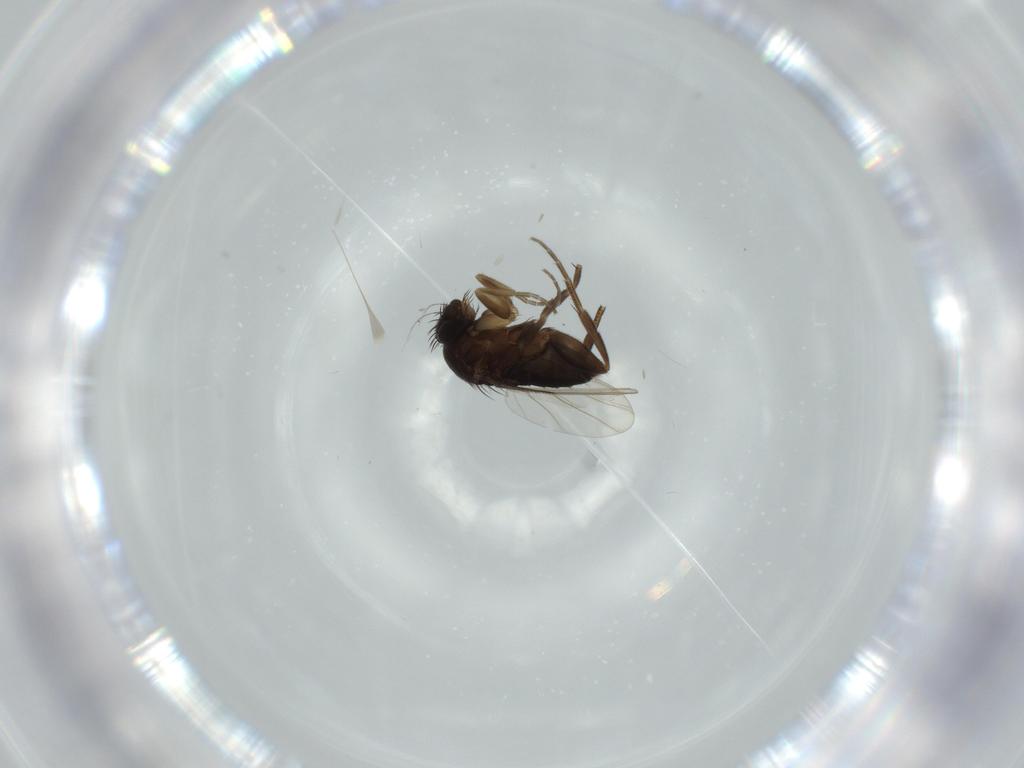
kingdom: Animalia
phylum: Arthropoda
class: Insecta
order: Diptera
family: Phoridae
